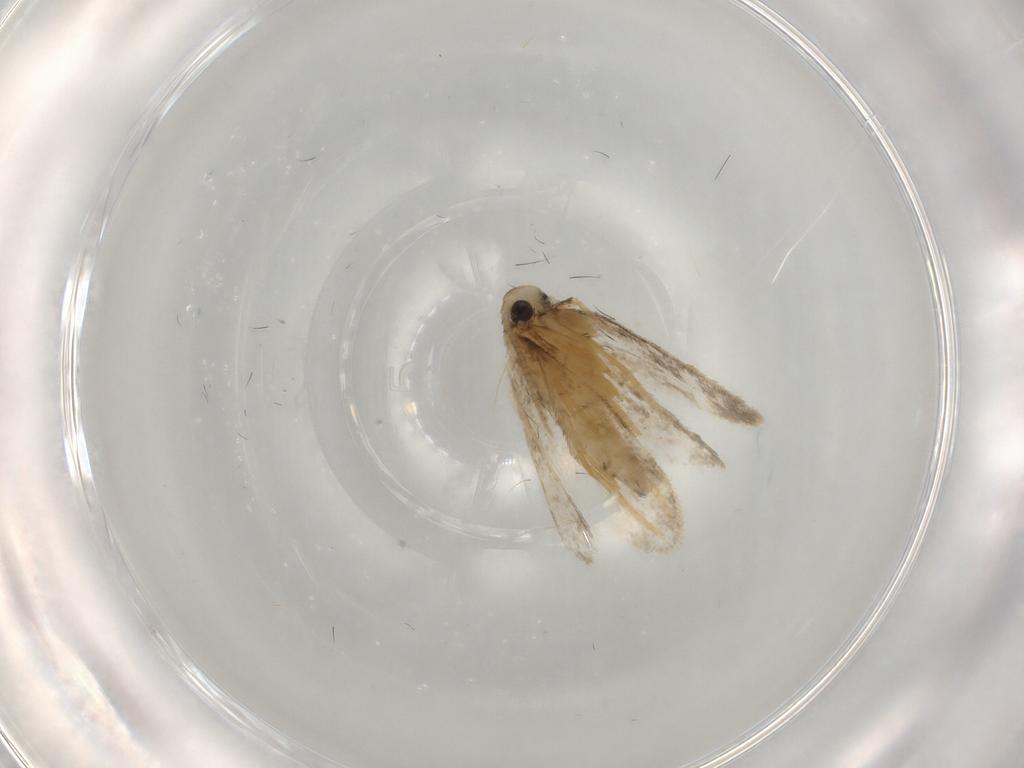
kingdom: Animalia
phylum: Arthropoda
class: Insecta
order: Lepidoptera
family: Psychidae
